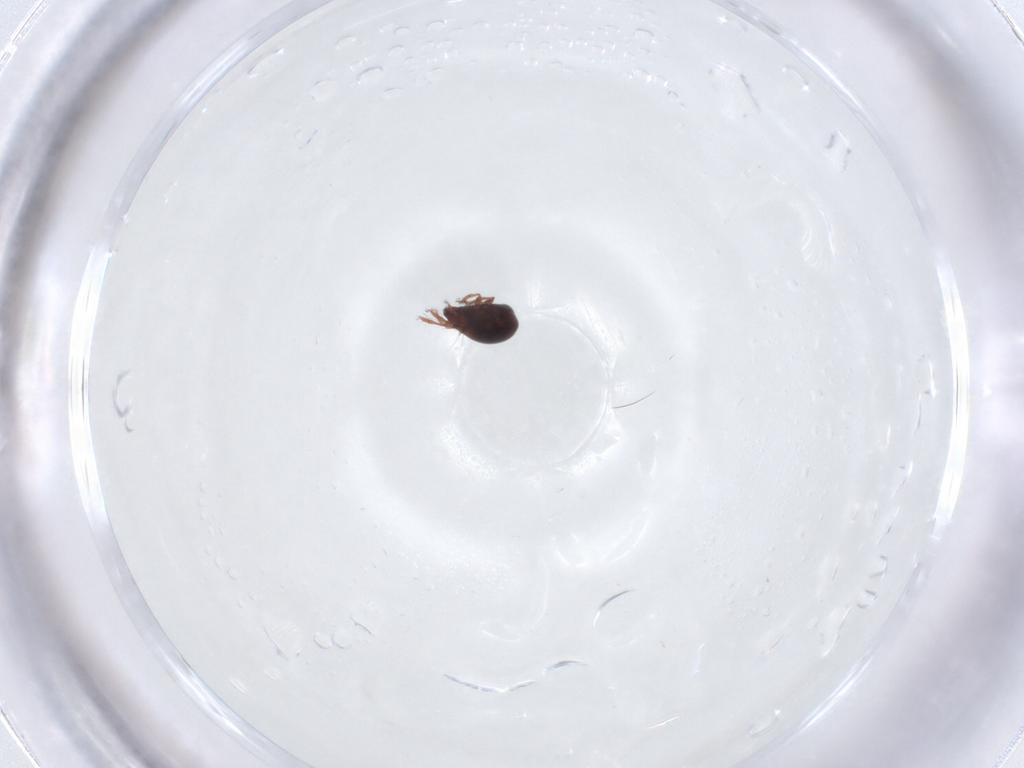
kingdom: Animalia
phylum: Arthropoda
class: Arachnida
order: Sarcoptiformes
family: Ceratozetidae
